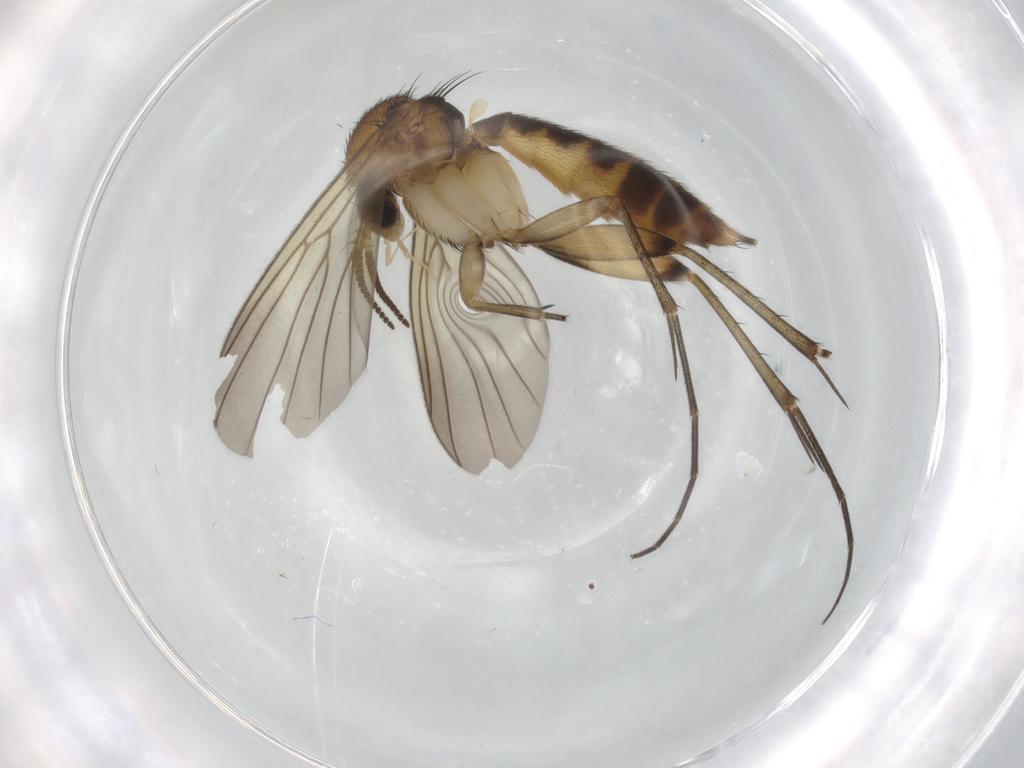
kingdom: Animalia
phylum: Arthropoda
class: Insecta
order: Diptera
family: Mycetophilidae
